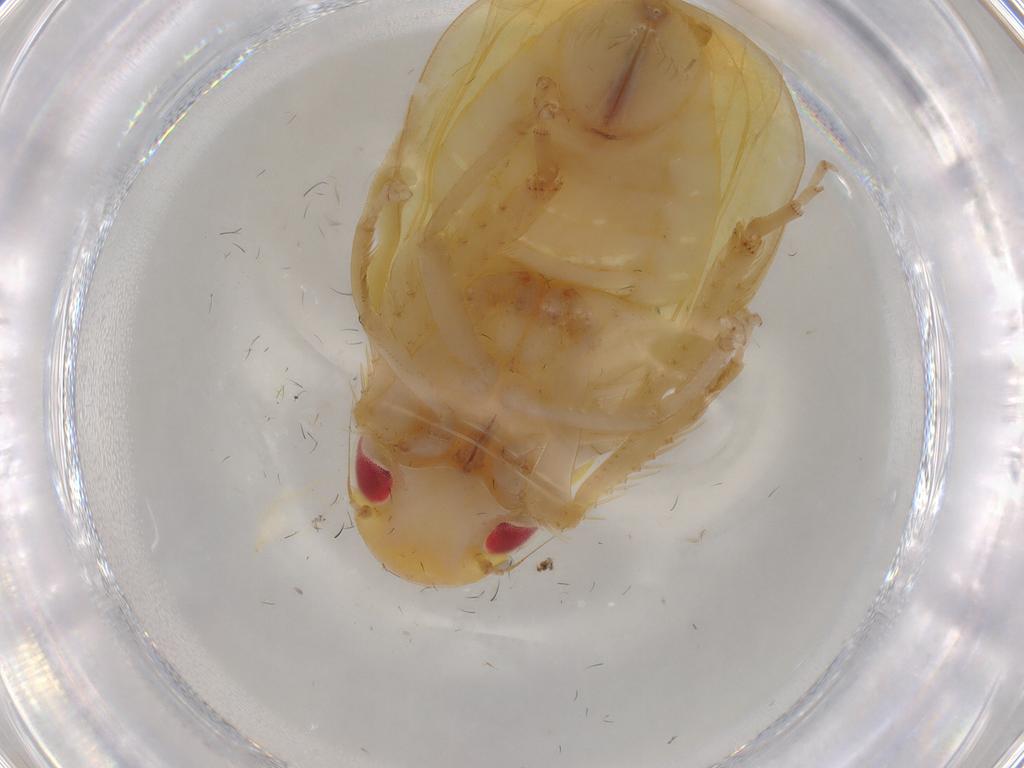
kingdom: Animalia
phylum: Arthropoda
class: Insecta
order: Hemiptera
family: Cicadellidae
